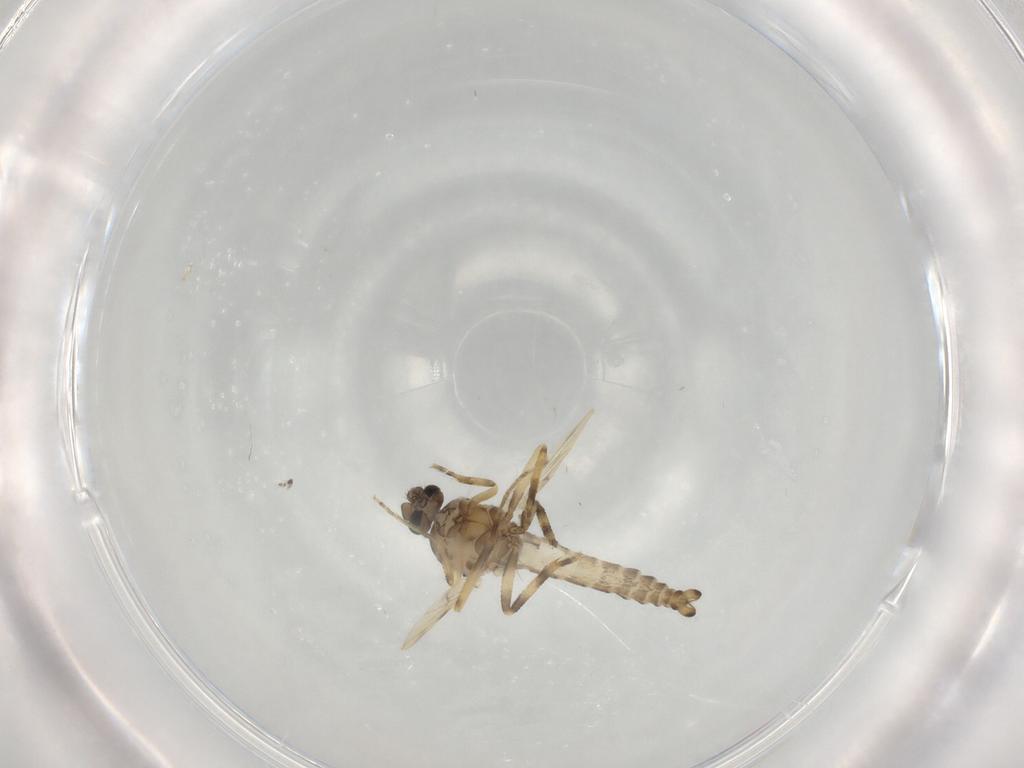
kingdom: Animalia
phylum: Arthropoda
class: Insecta
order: Diptera
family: Ceratopogonidae
